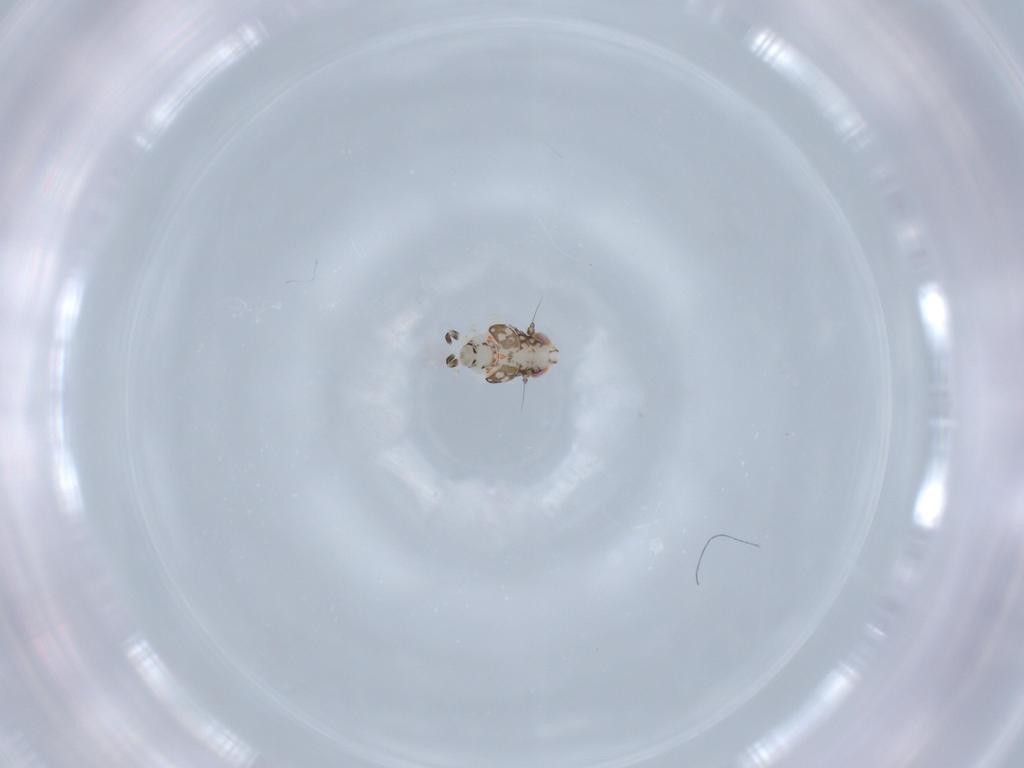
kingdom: Animalia
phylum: Arthropoda
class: Insecta
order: Hemiptera
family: Nogodinidae
